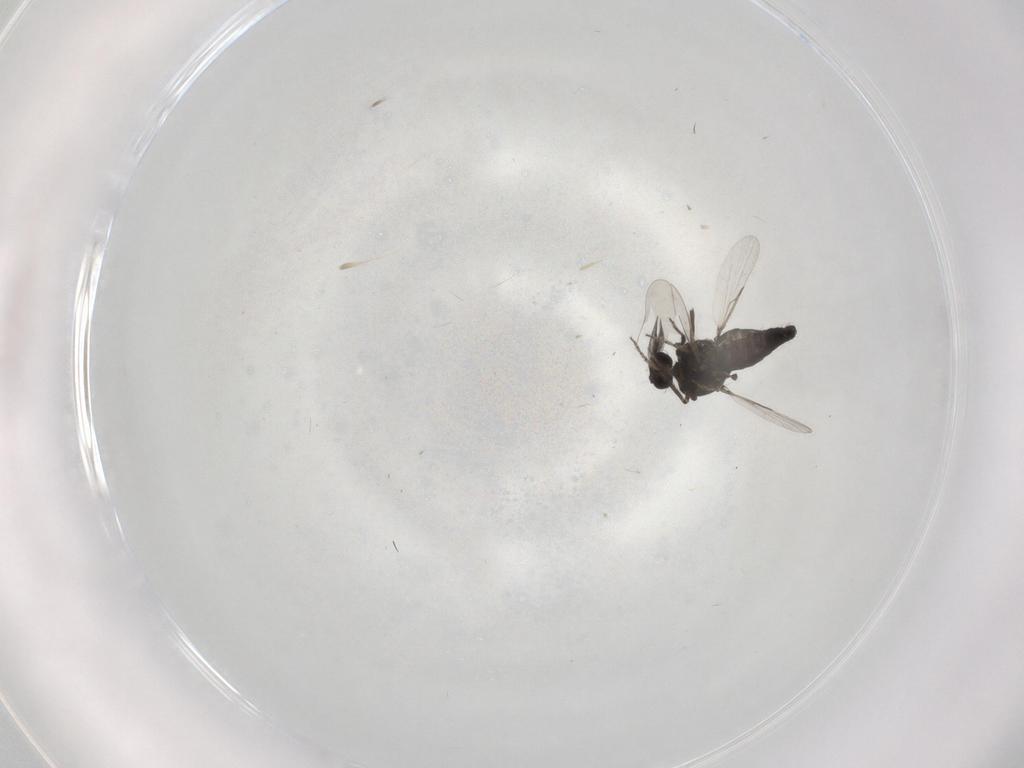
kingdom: Animalia
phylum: Arthropoda
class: Insecta
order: Diptera
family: Ceratopogonidae
